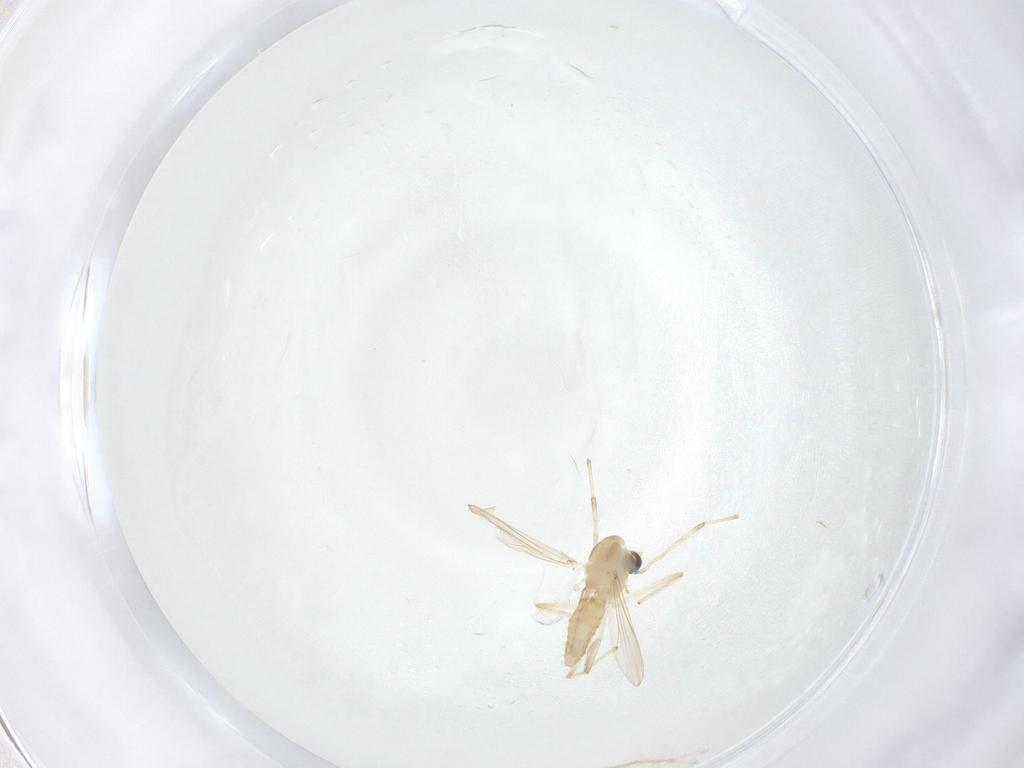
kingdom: Animalia
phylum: Arthropoda
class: Insecta
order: Diptera
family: Cecidomyiidae
